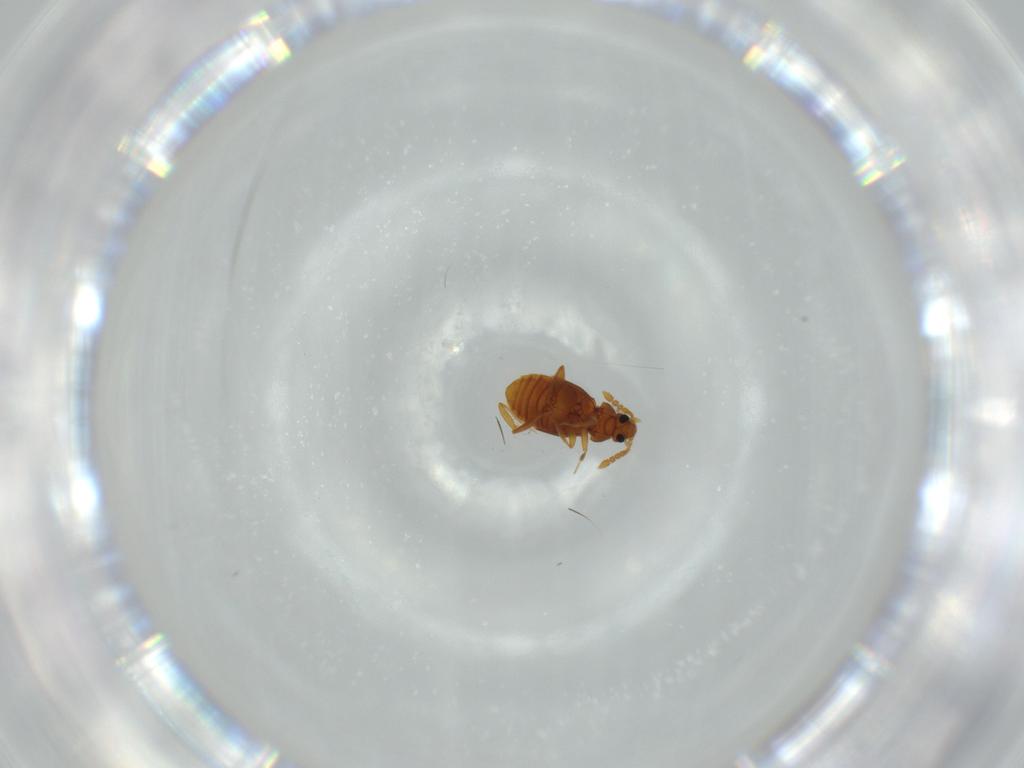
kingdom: Animalia
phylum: Arthropoda
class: Insecta
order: Coleoptera
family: Staphylinidae
